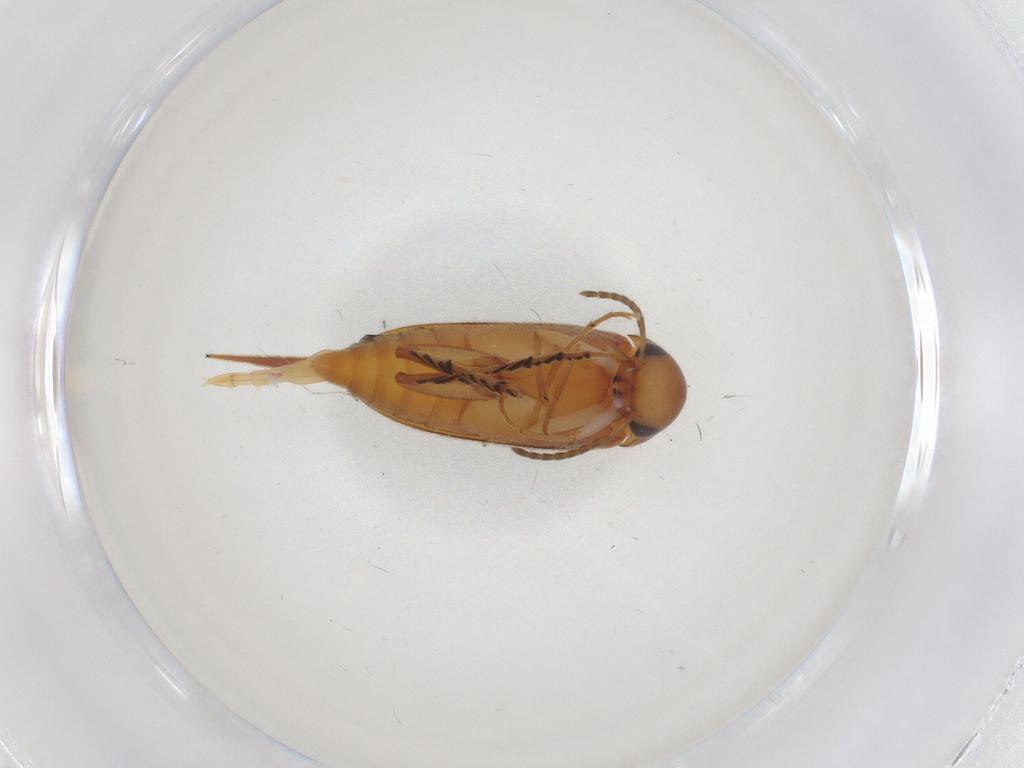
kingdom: Animalia
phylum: Arthropoda
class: Insecta
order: Coleoptera
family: Mordellidae
